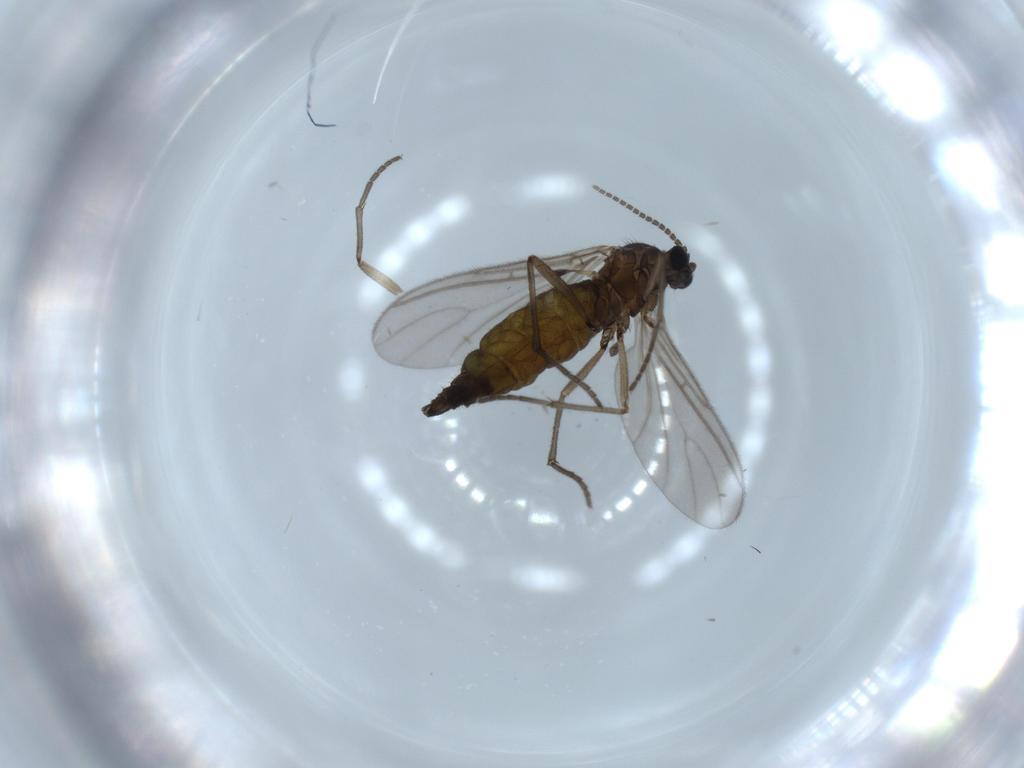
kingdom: Animalia
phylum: Arthropoda
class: Insecta
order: Diptera
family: Sciaridae
